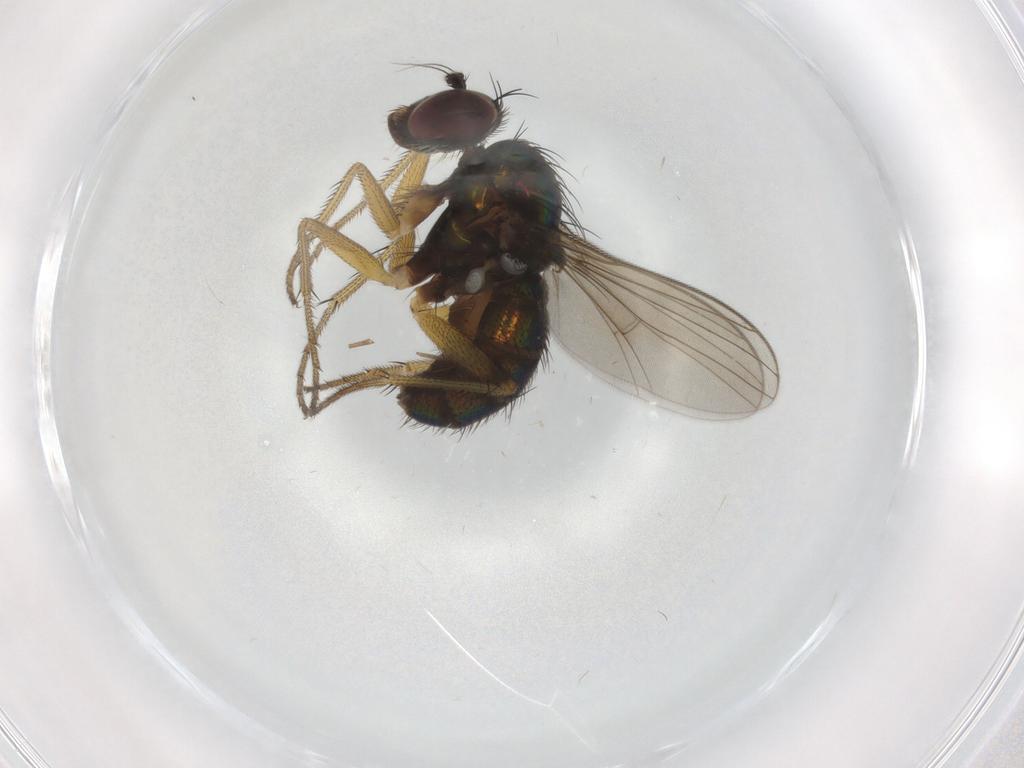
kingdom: Animalia
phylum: Arthropoda
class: Insecta
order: Diptera
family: Dolichopodidae
